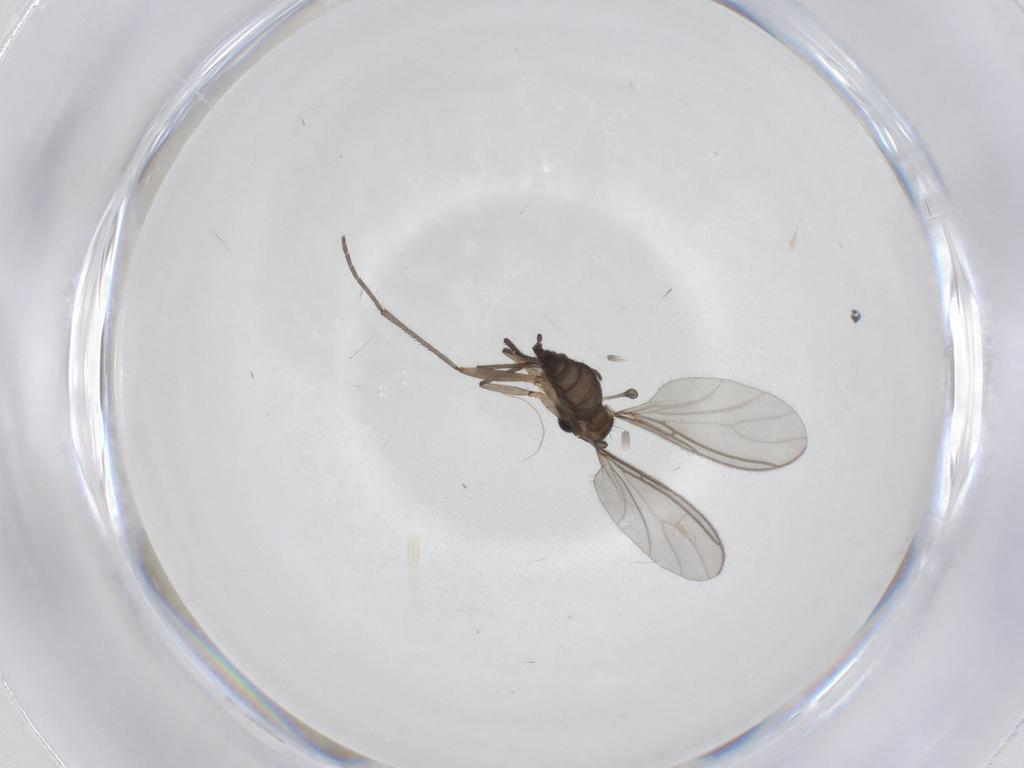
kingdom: Animalia
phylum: Arthropoda
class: Insecta
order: Diptera
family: Sciaridae
